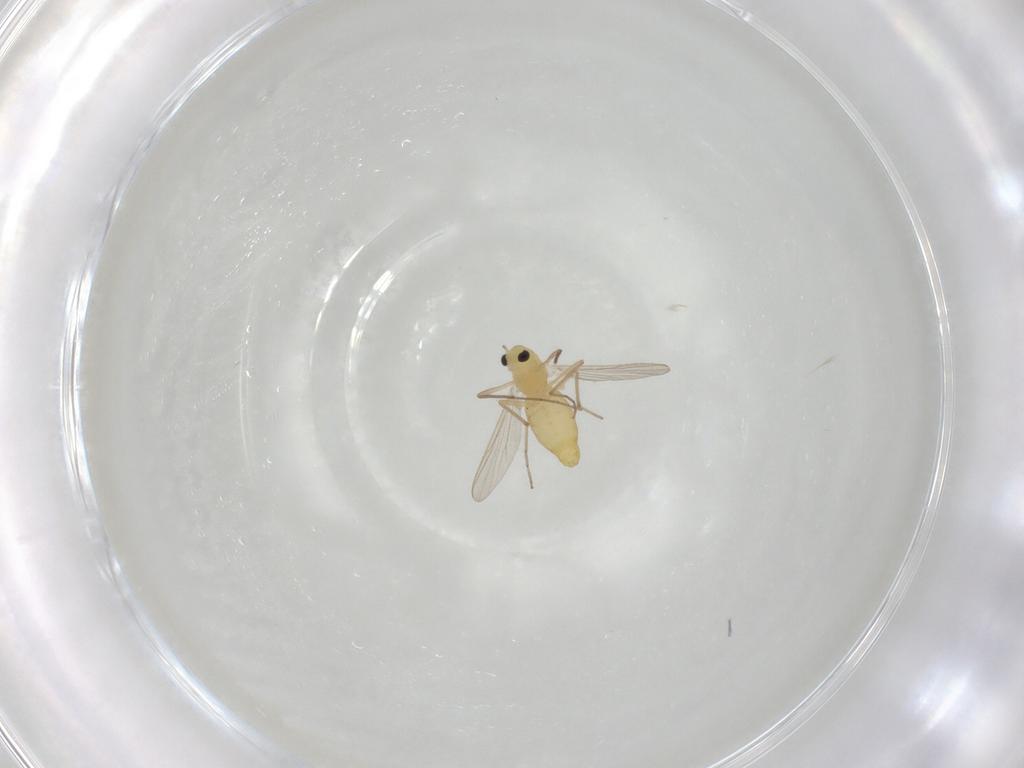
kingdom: Animalia
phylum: Arthropoda
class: Insecta
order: Diptera
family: Chironomidae
